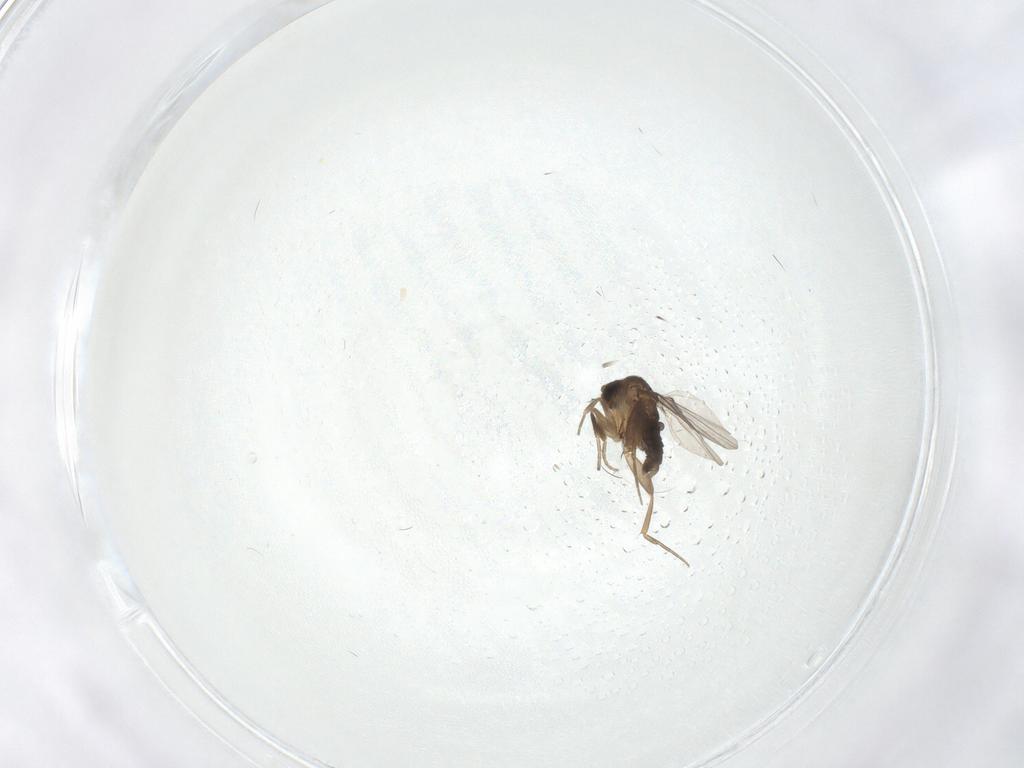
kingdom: Animalia
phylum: Arthropoda
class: Insecta
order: Diptera
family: Phoridae
